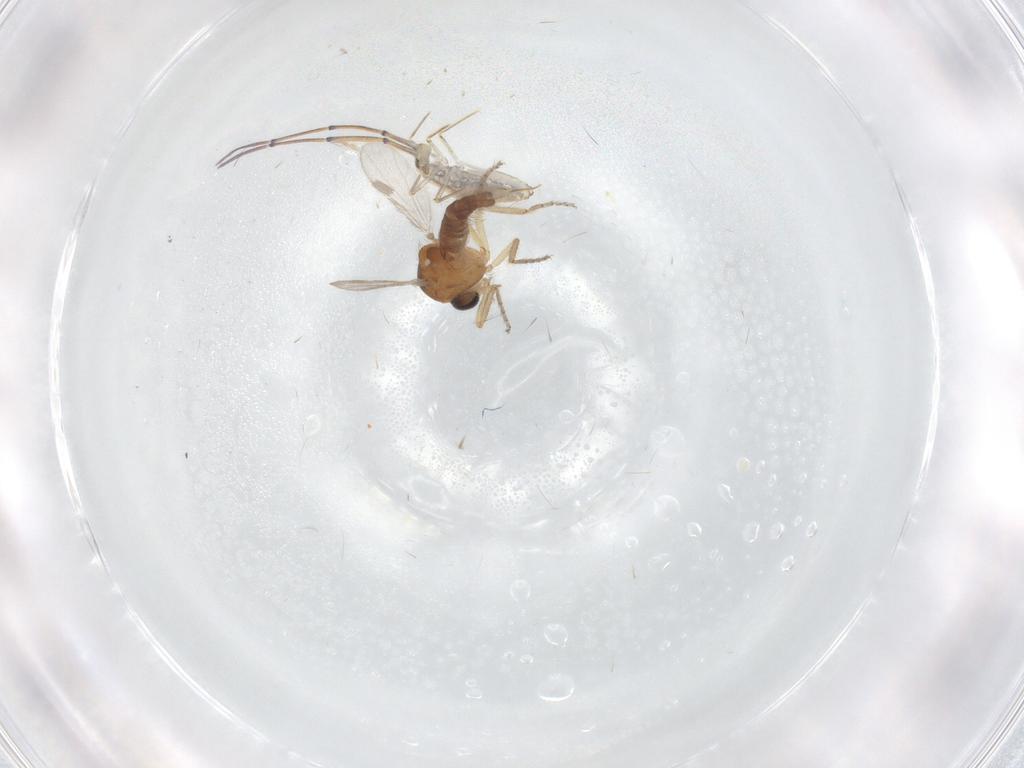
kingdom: Animalia
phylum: Arthropoda
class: Insecta
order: Diptera
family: Ceratopogonidae
